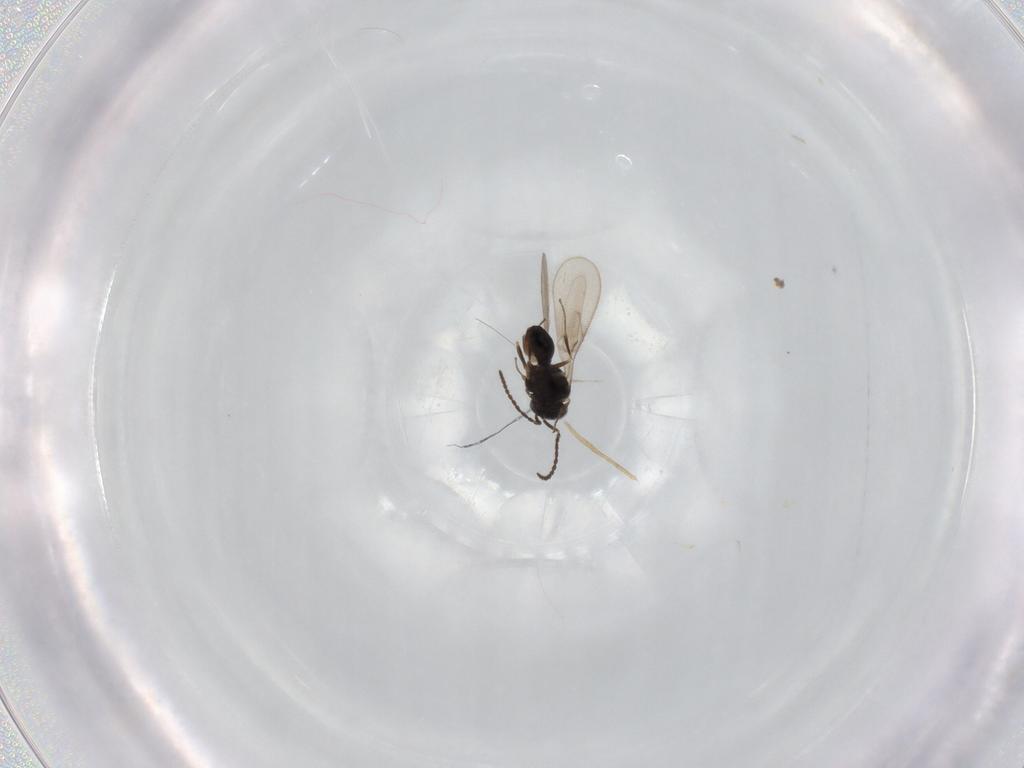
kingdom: Animalia
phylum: Arthropoda
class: Insecta
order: Hymenoptera
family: Scelionidae
